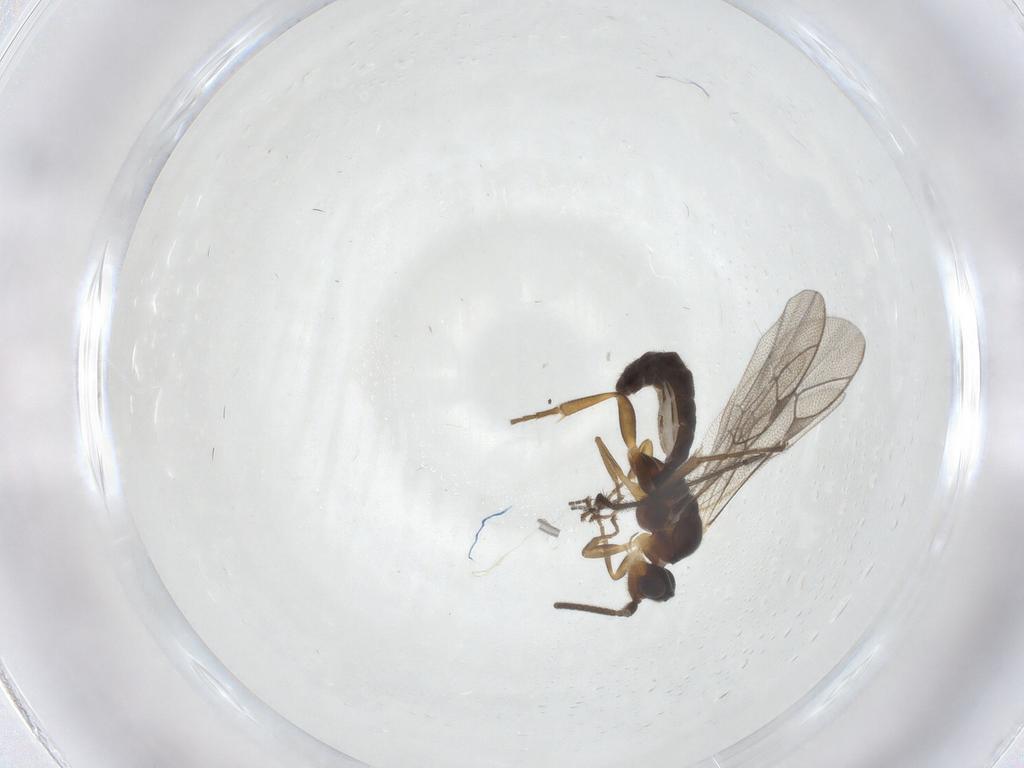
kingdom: Animalia
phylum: Arthropoda
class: Insecta
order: Hymenoptera
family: Ichneumonidae
